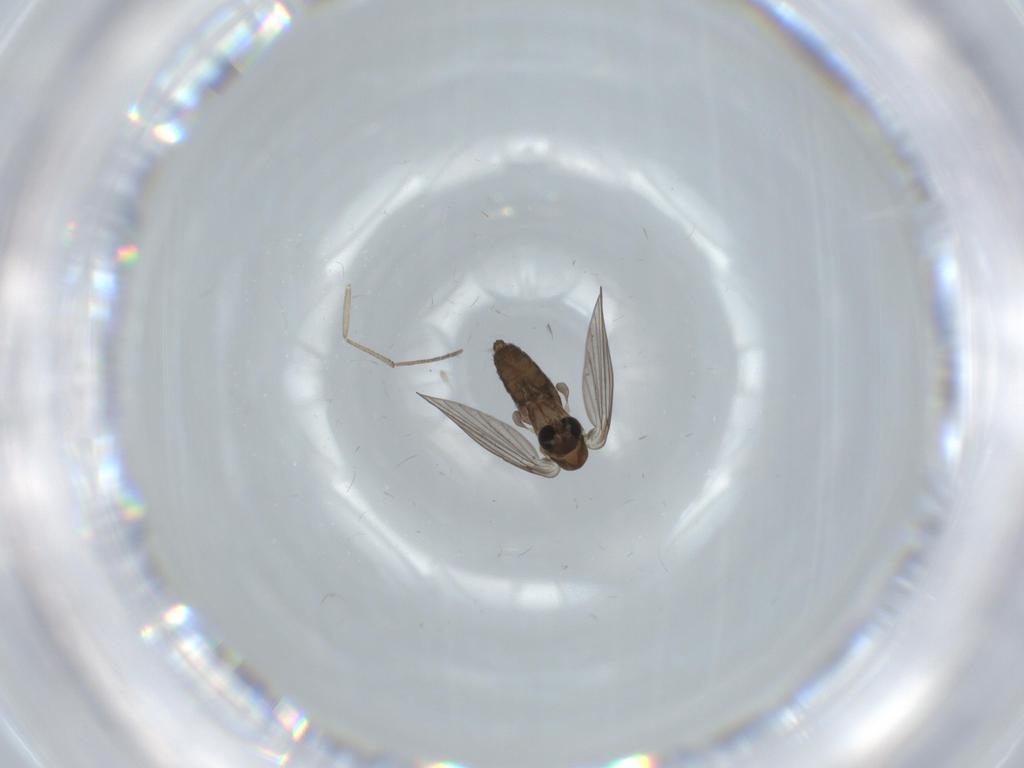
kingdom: Animalia
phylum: Arthropoda
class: Insecta
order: Diptera
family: Psychodidae
